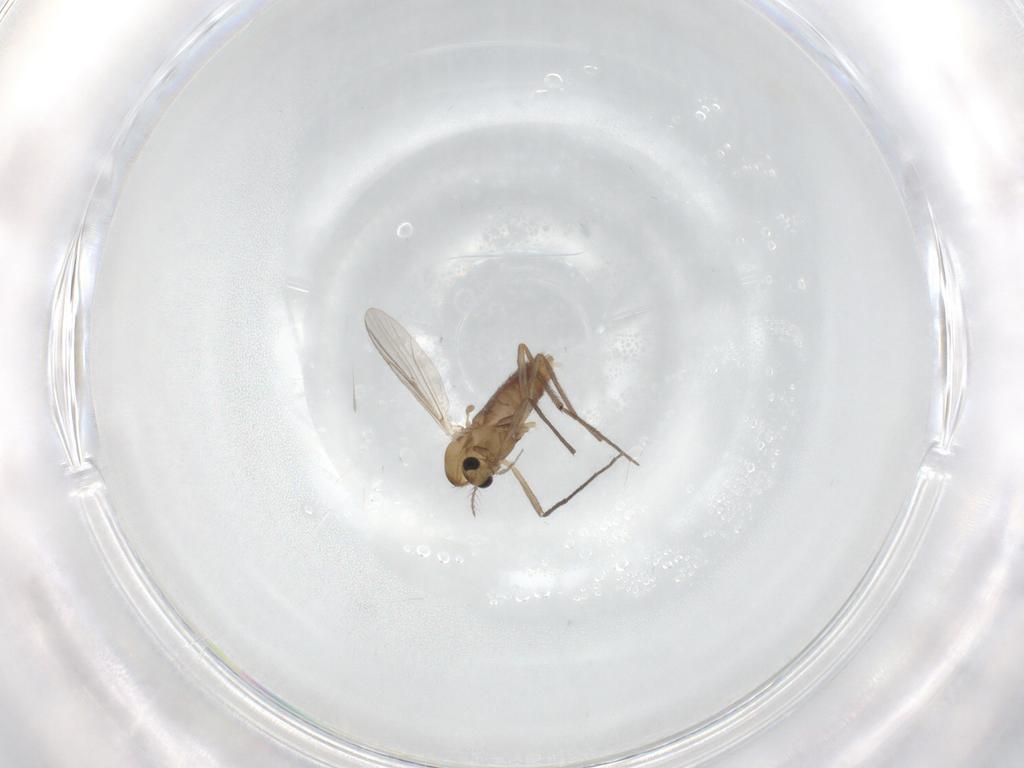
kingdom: Animalia
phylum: Arthropoda
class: Insecta
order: Diptera
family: Chironomidae
